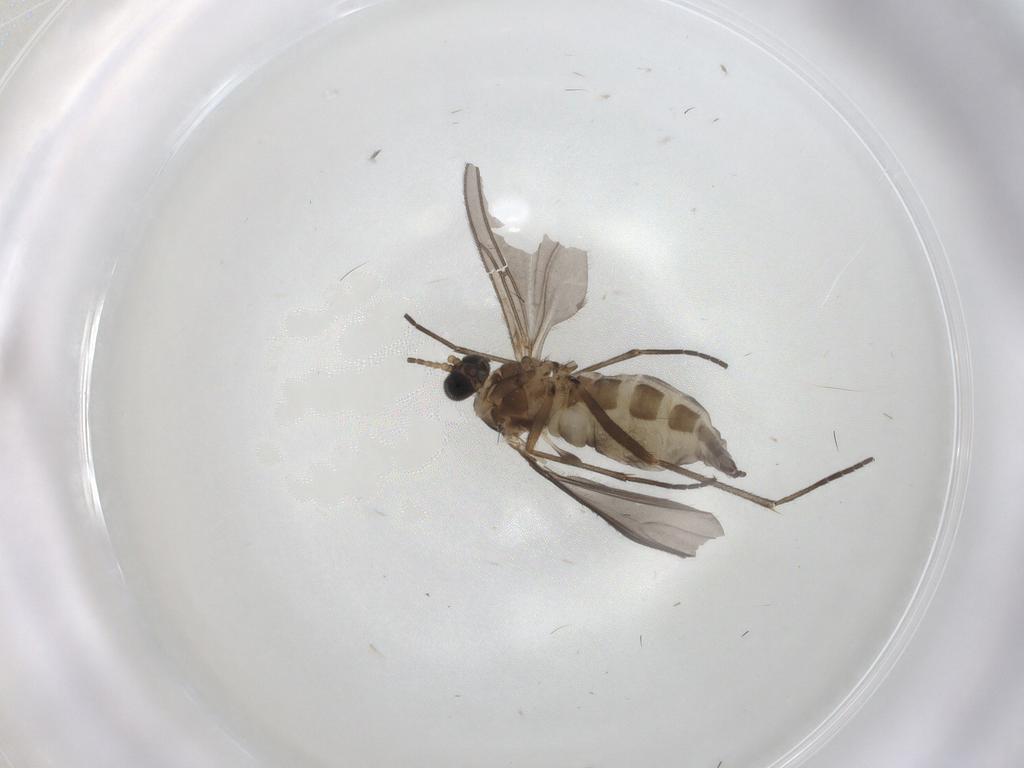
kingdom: Animalia
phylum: Arthropoda
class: Insecta
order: Diptera
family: Sciaridae
